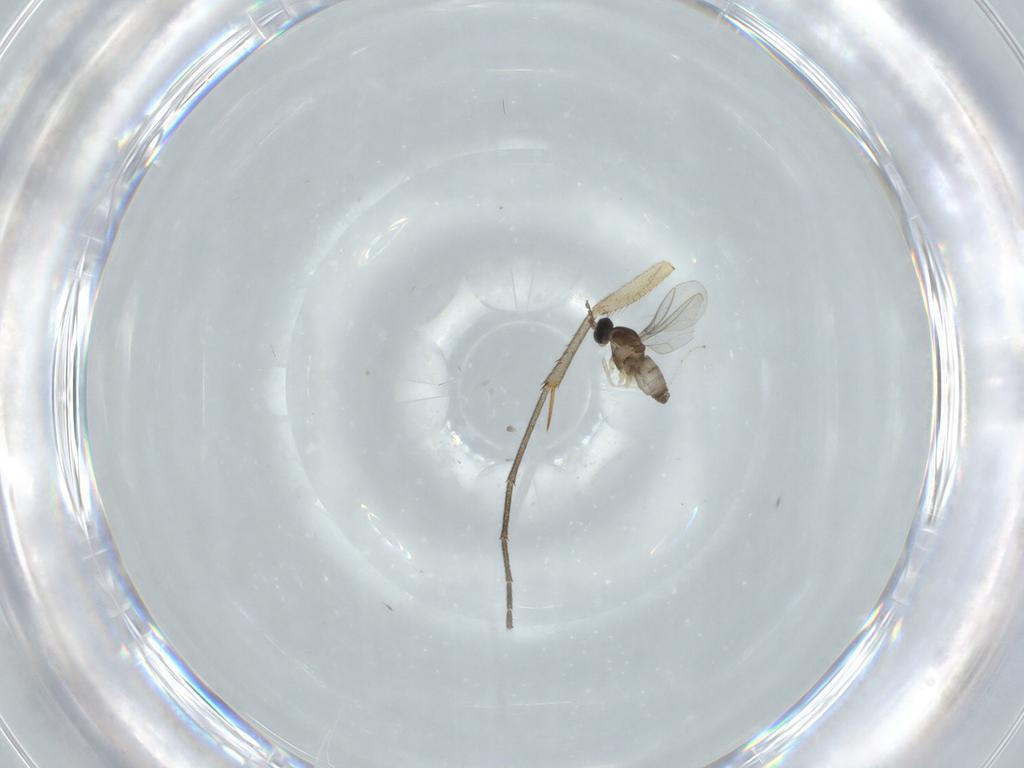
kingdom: Animalia
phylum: Arthropoda
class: Insecta
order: Diptera
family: Cecidomyiidae
